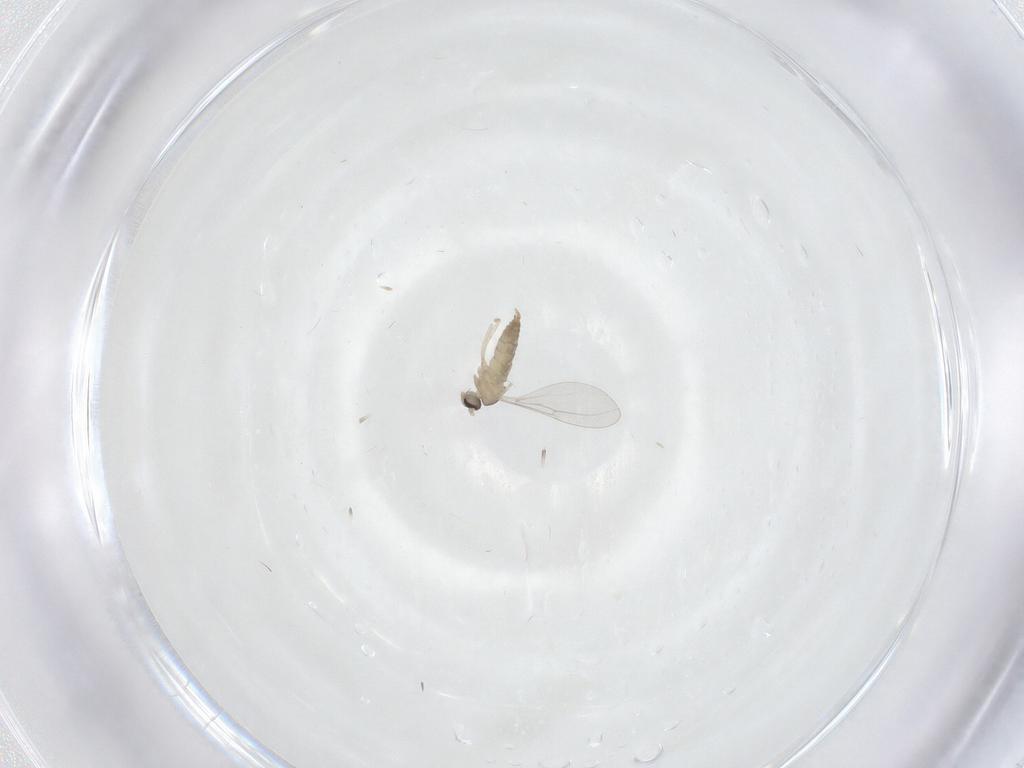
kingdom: Animalia
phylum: Arthropoda
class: Insecta
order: Diptera
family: Cecidomyiidae
